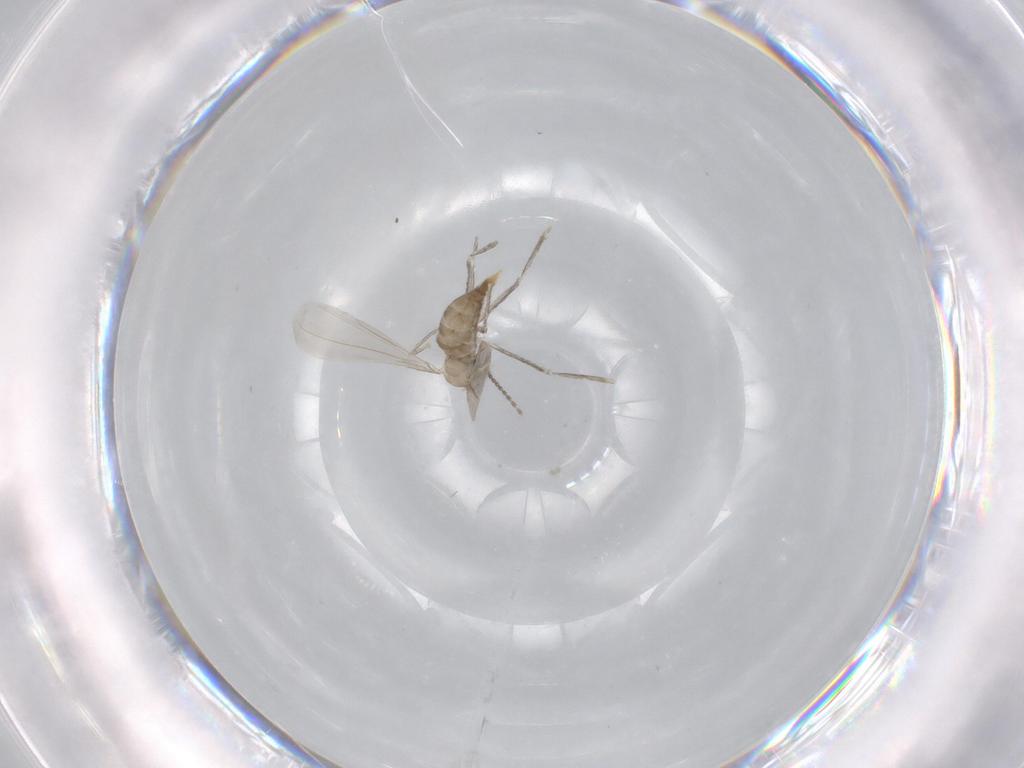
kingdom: Animalia
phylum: Arthropoda
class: Insecta
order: Diptera
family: Cecidomyiidae
